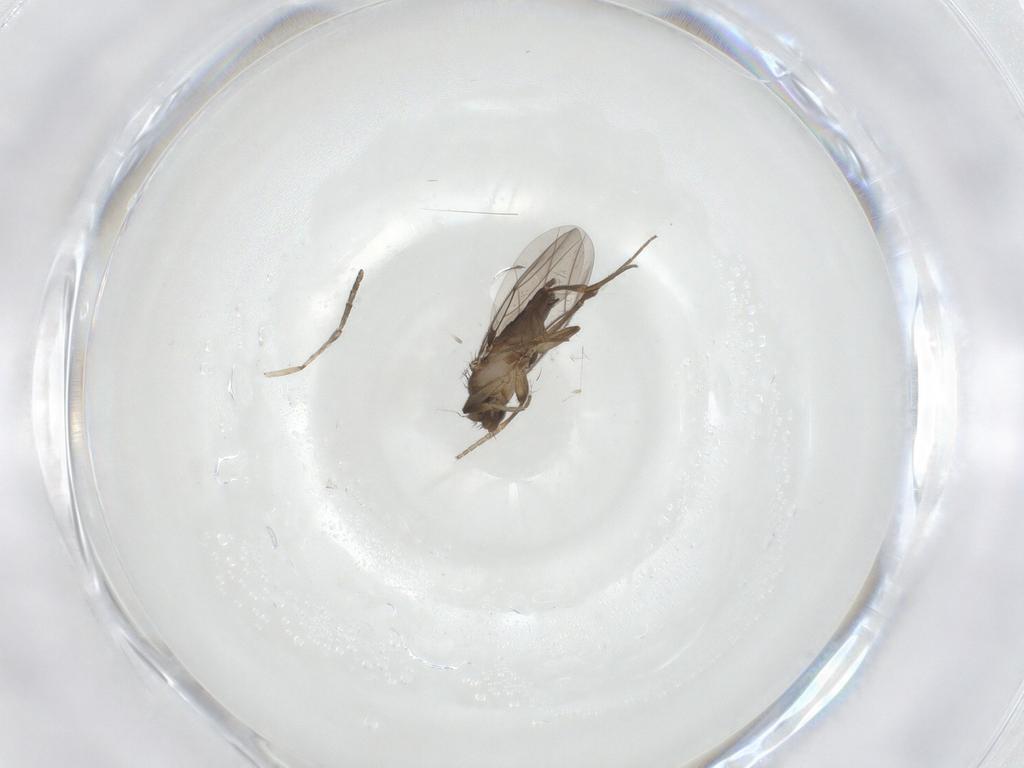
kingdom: Animalia
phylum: Arthropoda
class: Insecta
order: Diptera
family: Phoridae
